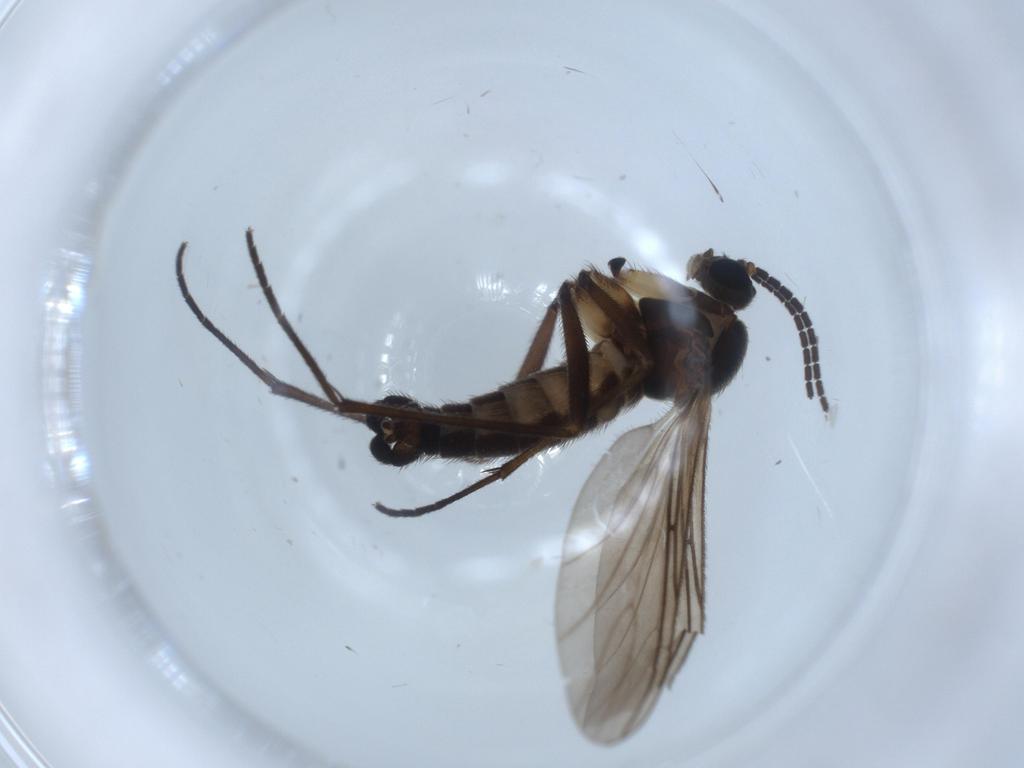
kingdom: Animalia
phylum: Arthropoda
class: Insecta
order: Diptera
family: Sciaridae
